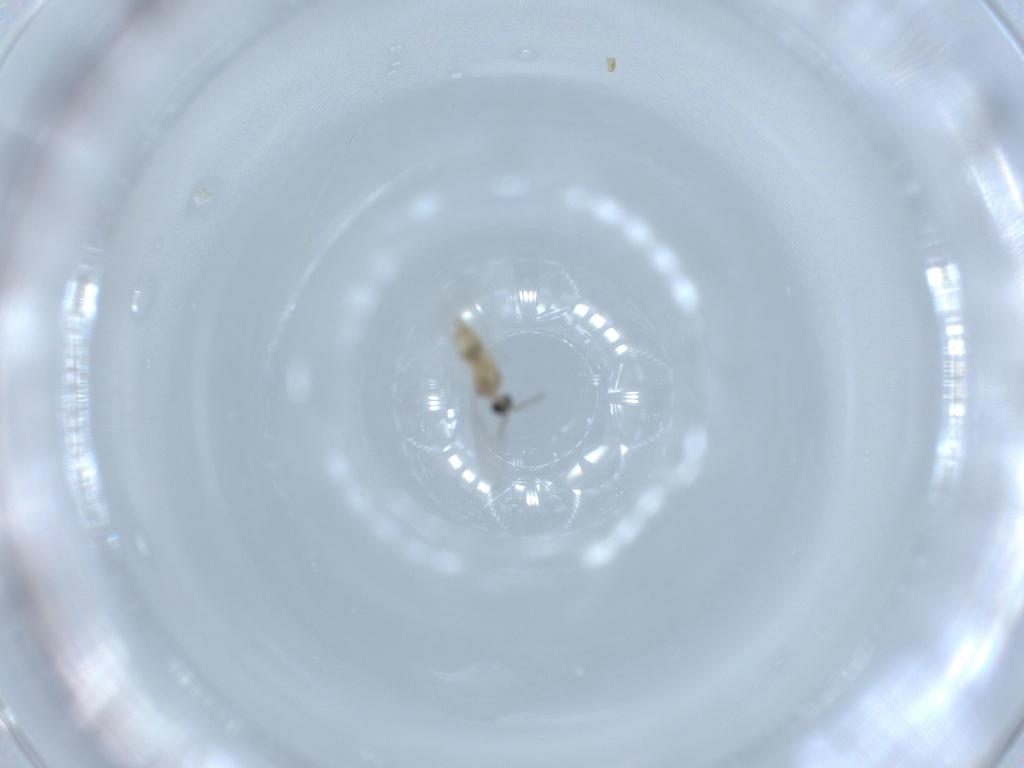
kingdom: Animalia
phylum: Arthropoda
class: Insecta
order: Diptera
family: Cecidomyiidae
